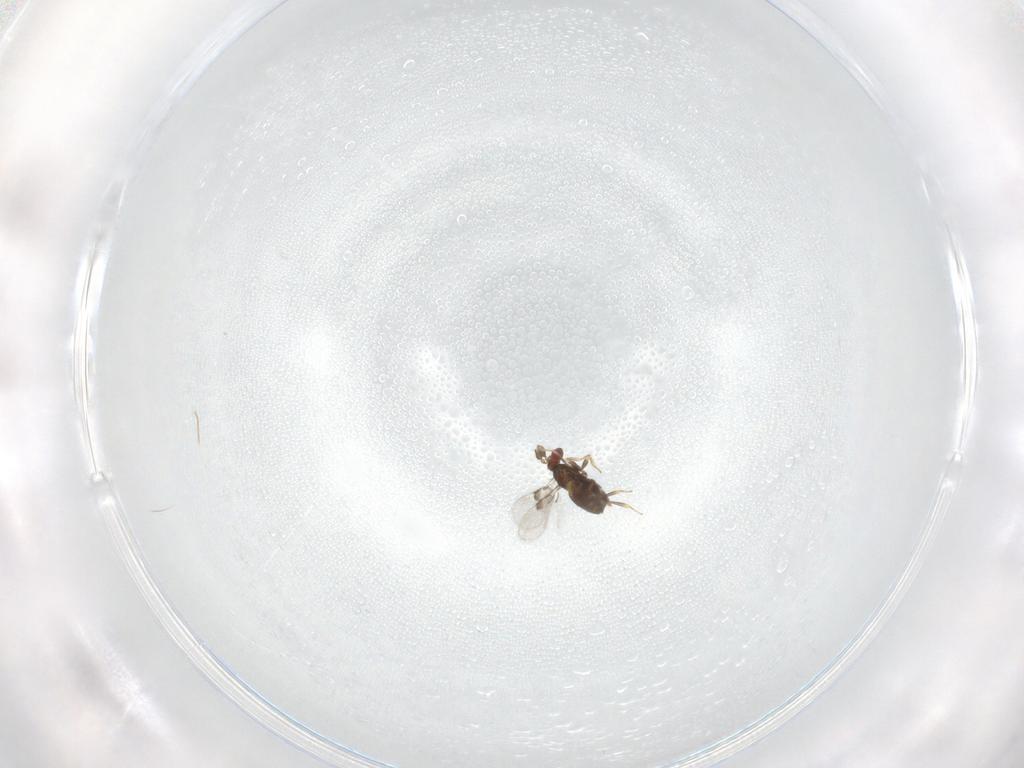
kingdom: Animalia
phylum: Arthropoda
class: Insecta
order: Hymenoptera
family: Trichogrammatidae
